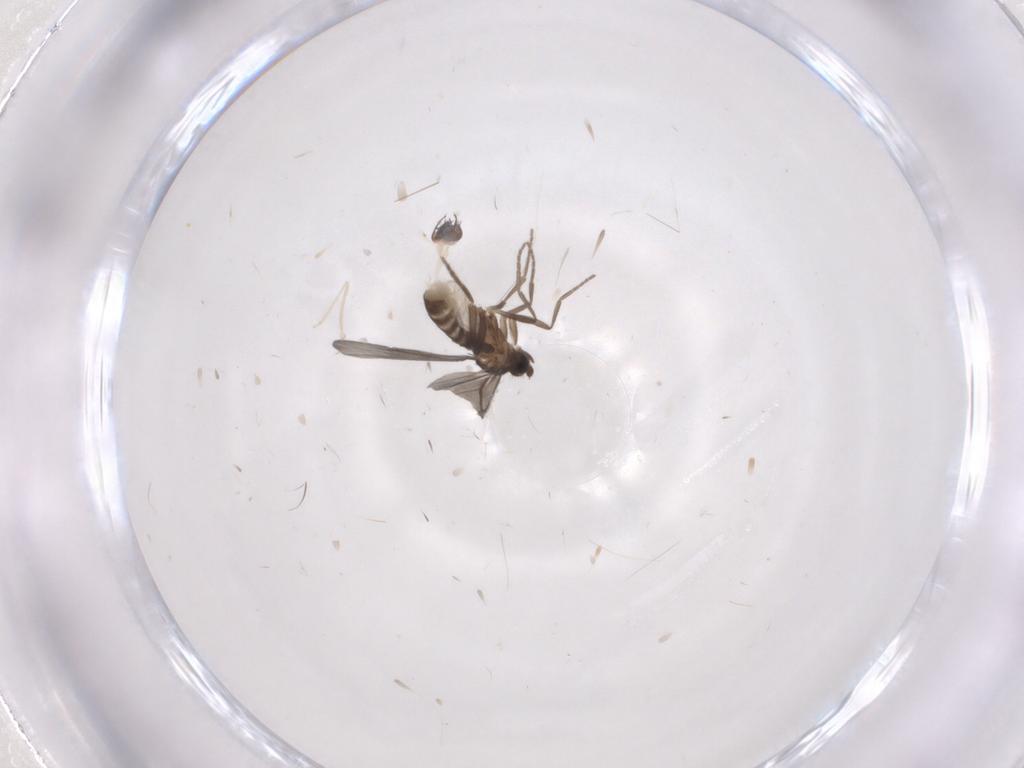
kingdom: Animalia
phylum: Arthropoda
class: Insecta
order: Hymenoptera
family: Formicidae
